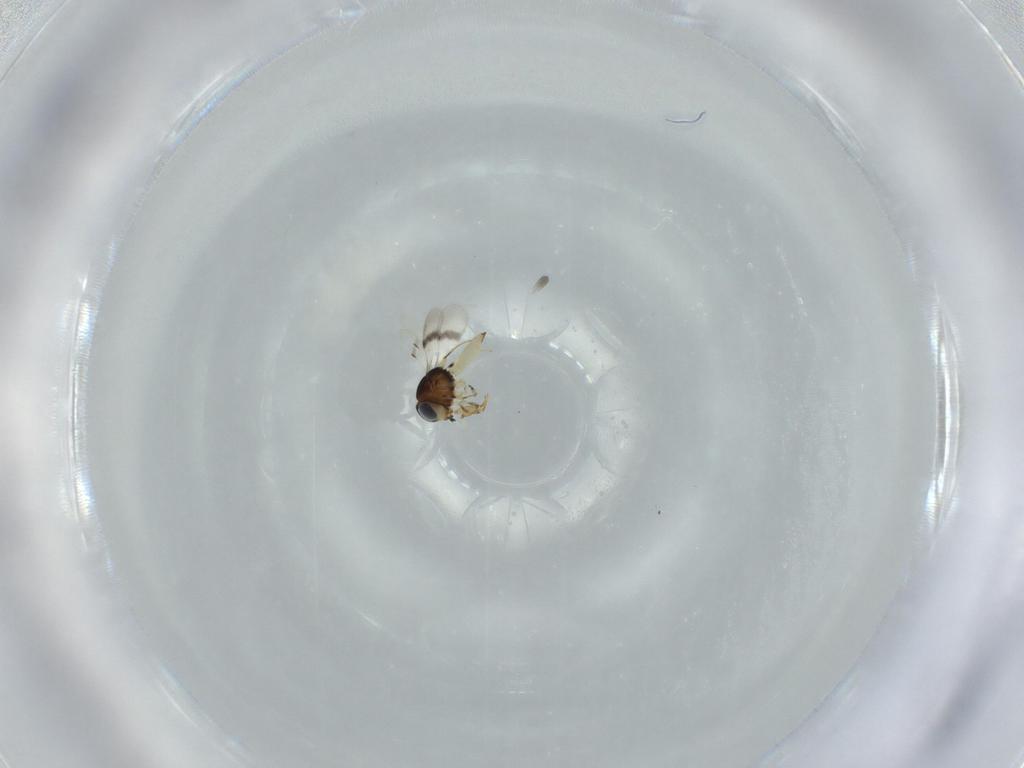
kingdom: Animalia
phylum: Arthropoda
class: Insecta
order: Hymenoptera
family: Scelionidae
